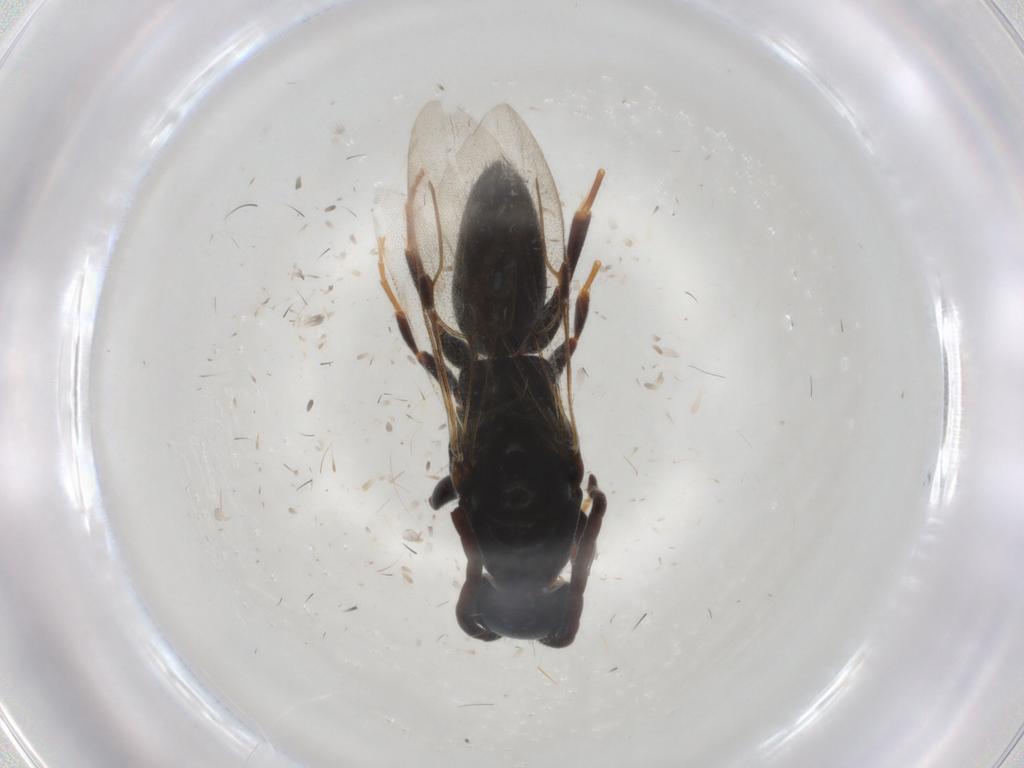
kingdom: Animalia
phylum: Arthropoda
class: Insecta
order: Hymenoptera
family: Bethylidae
